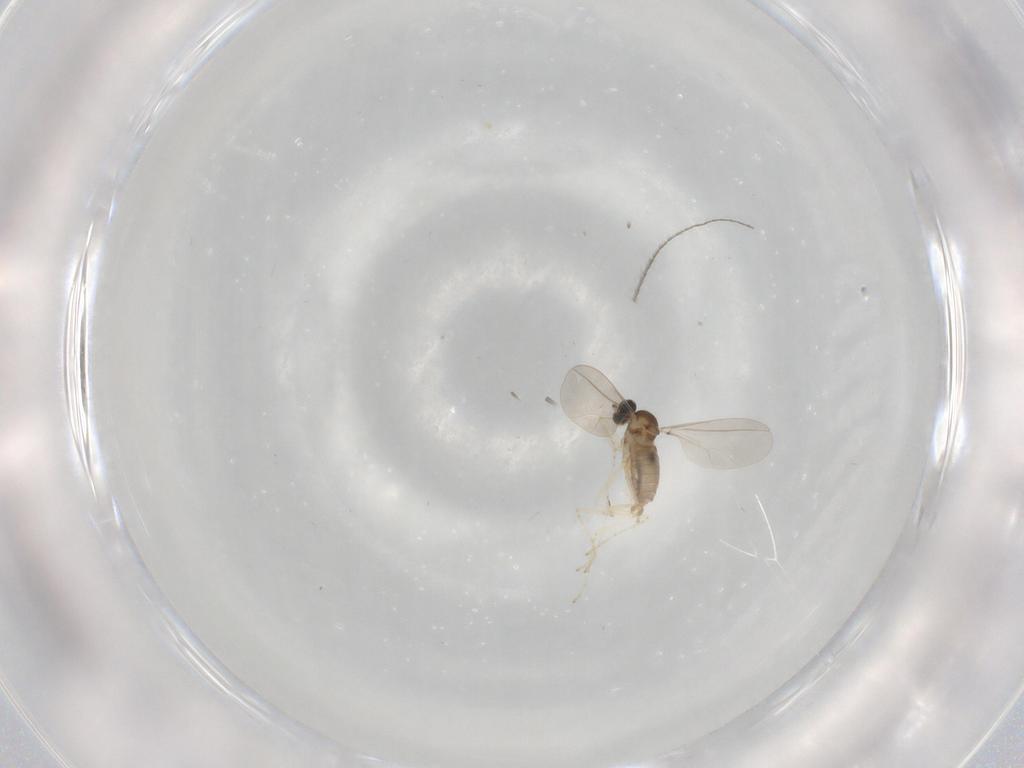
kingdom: Animalia
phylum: Arthropoda
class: Insecta
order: Diptera
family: Cecidomyiidae
